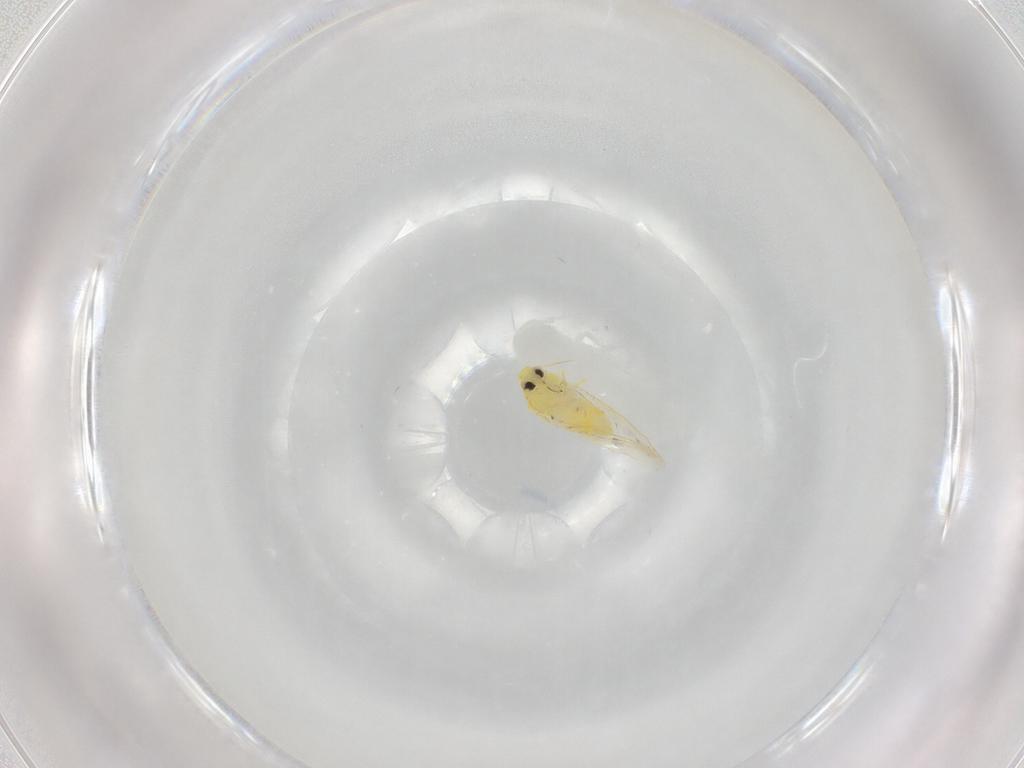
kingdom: Animalia
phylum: Arthropoda
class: Insecta
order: Hemiptera
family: Aleyrodidae
